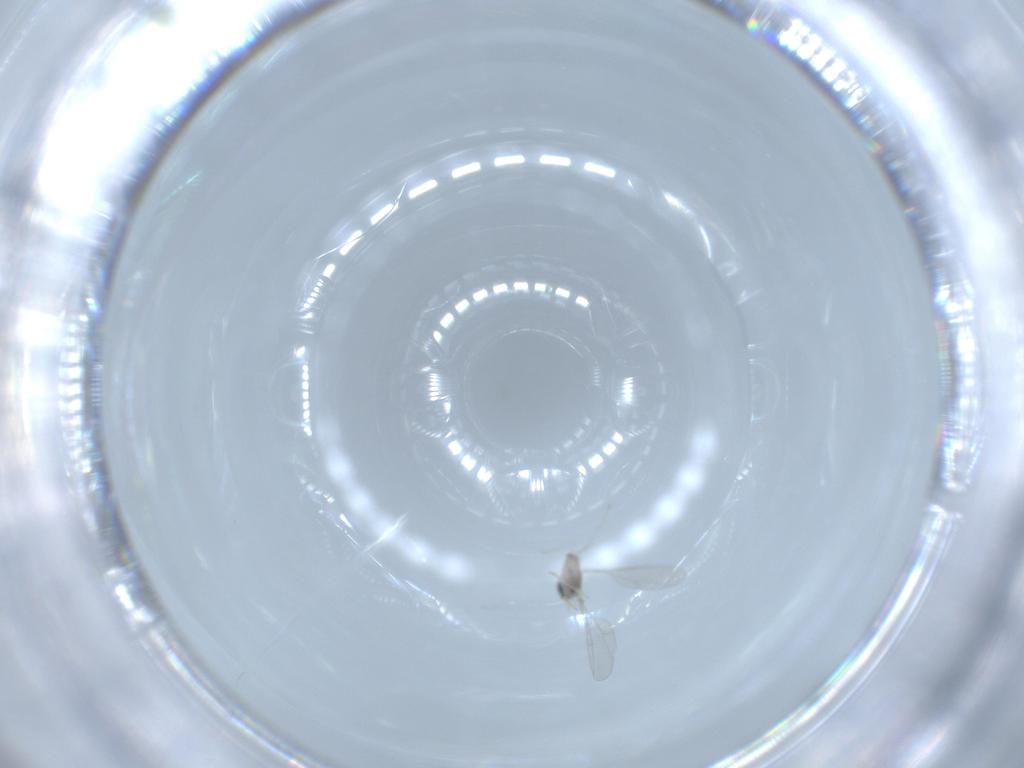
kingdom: Animalia
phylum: Arthropoda
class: Insecta
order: Diptera
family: Cecidomyiidae
